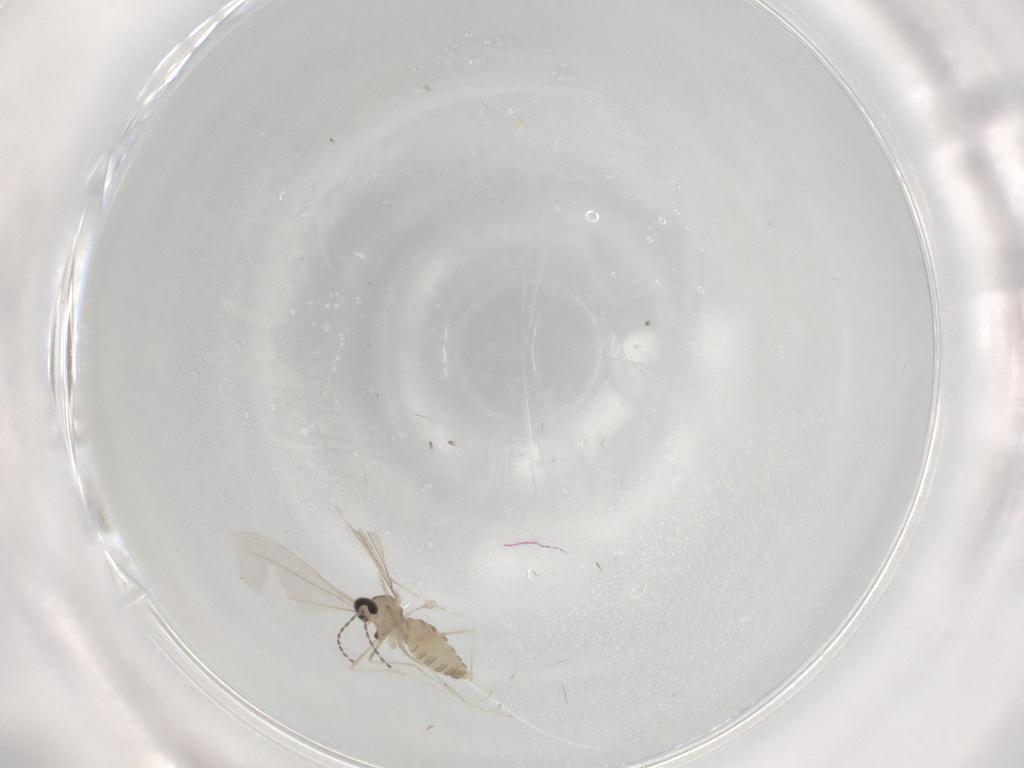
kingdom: Animalia
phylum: Arthropoda
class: Insecta
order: Diptera
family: Cecidomyiidae
